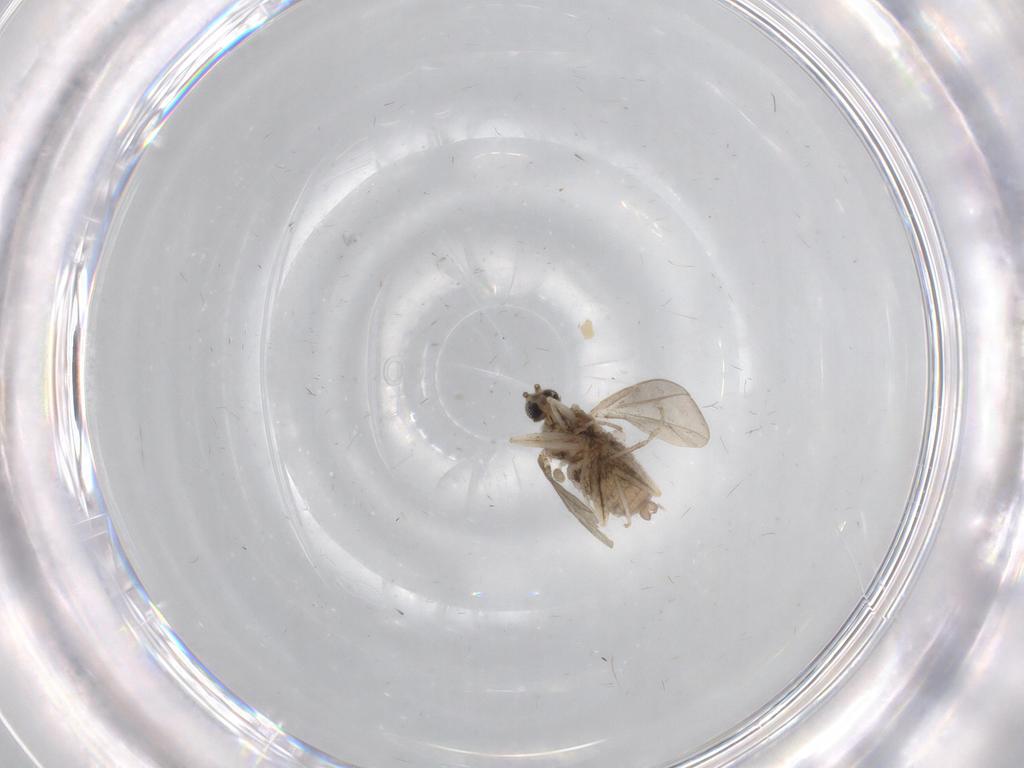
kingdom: Animalia
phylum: Arthropoda
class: Insecta
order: Diptera
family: Cecidomyiidae
